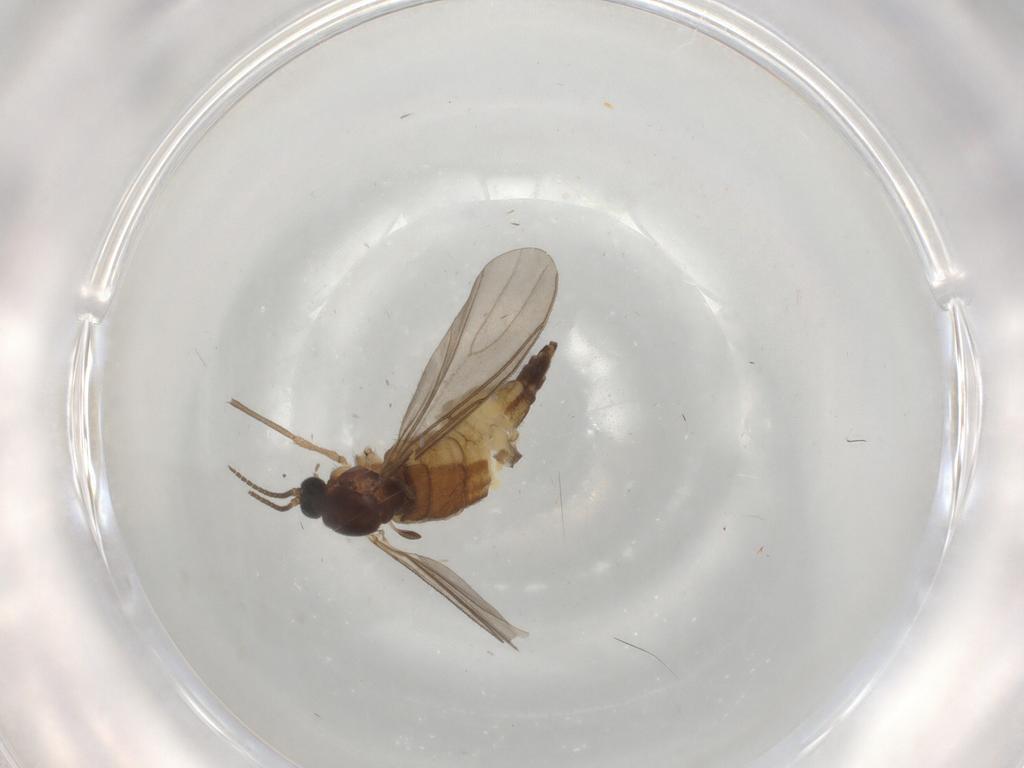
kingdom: Animalia
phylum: Arthropoda
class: Insecta
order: Diptera
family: Sciaridae
